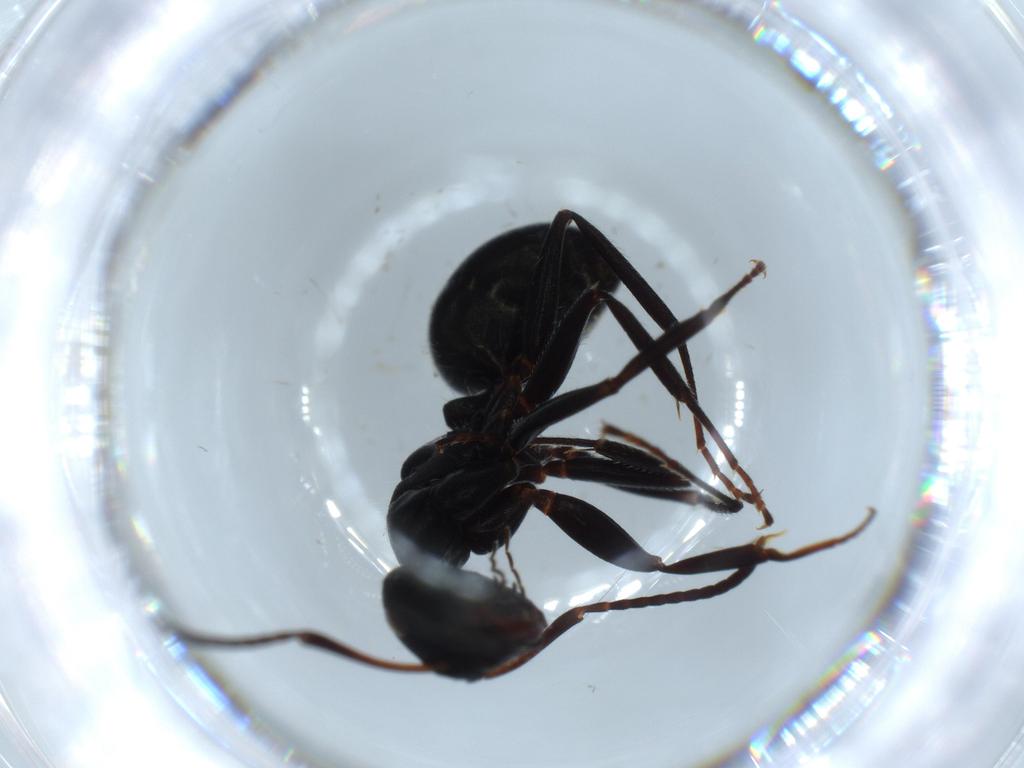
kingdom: Animalia
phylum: Arthropoda
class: Insecta
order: Hymenoptera
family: Formicidae
